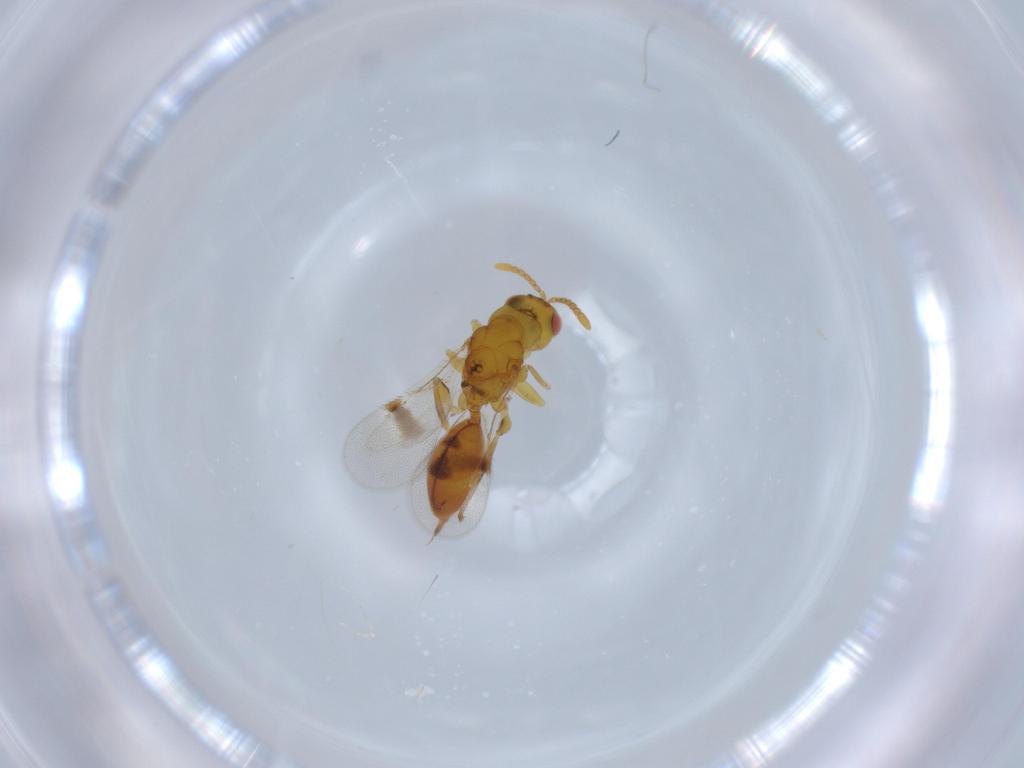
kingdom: Animalia
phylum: Arthropoda
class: Insecta
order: Hymenoptera
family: Eurytomidae
